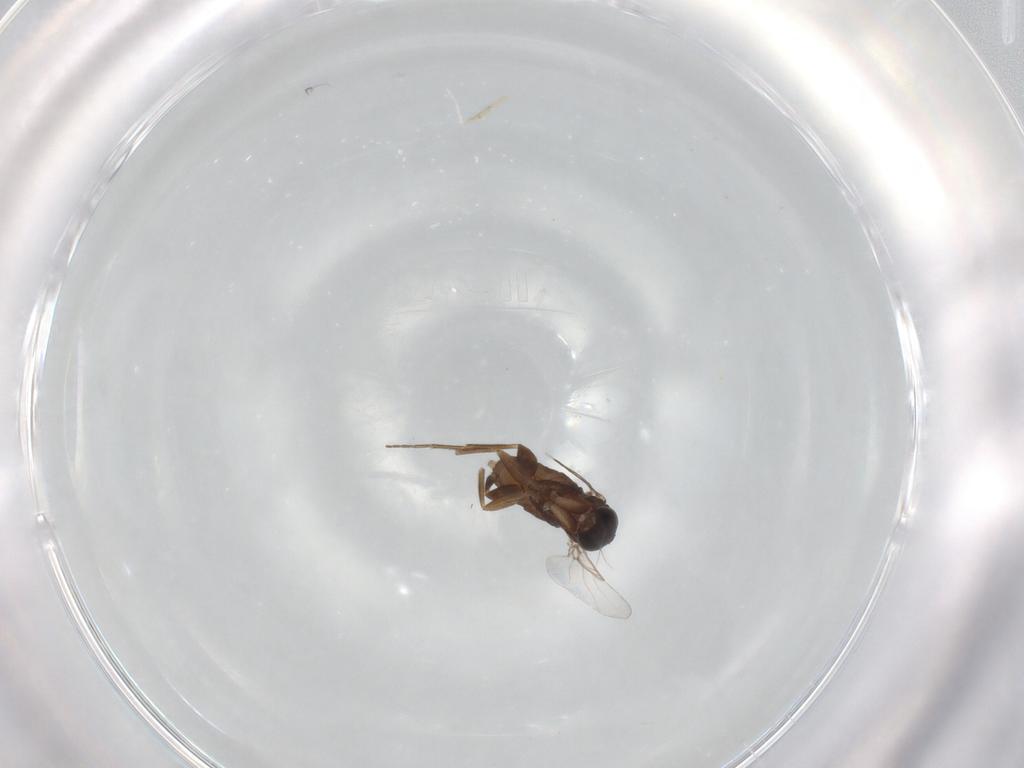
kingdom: Animalia
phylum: Arthropoda
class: Insecta
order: Diptera
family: Phoridae
